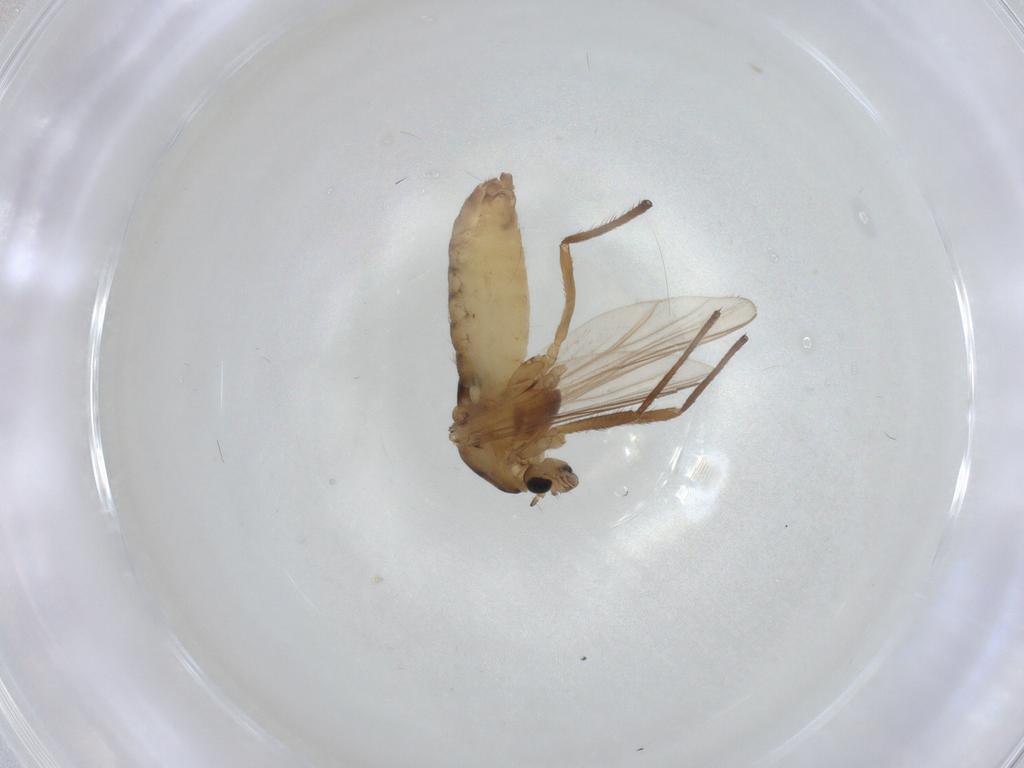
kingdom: Animalia
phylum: Arthropoda
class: Insecta
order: Diptera
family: Chironomidae
